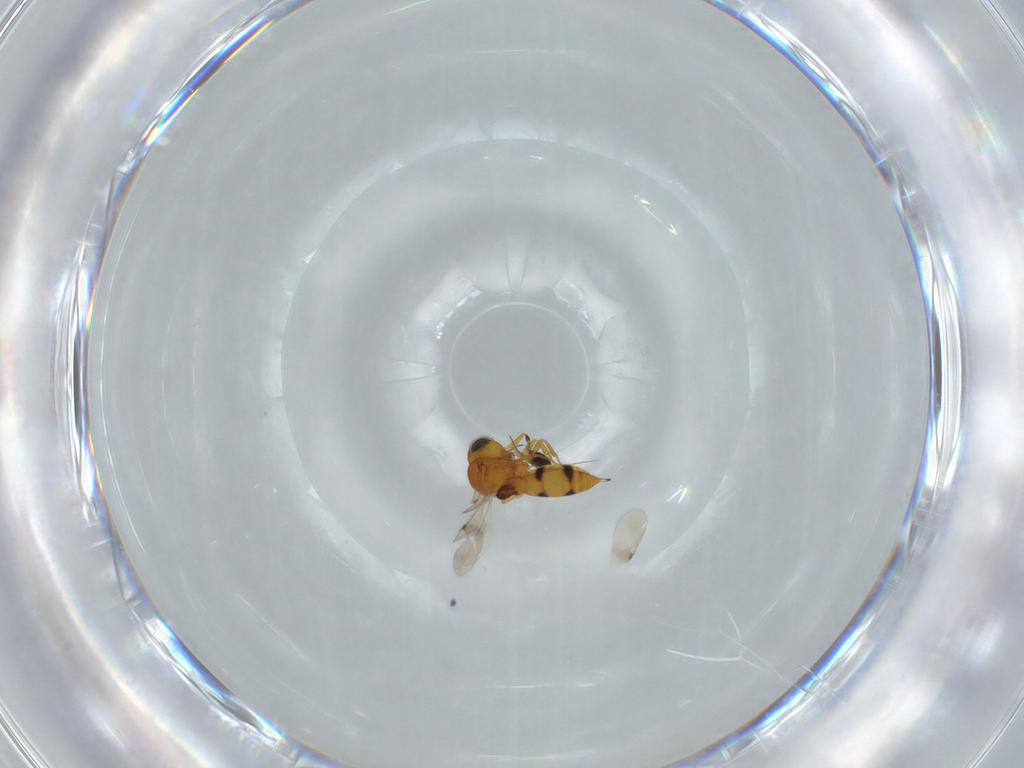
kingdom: Animalia
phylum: Arthropoda
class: Insecta
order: Hymenoptera
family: Scelionidae
